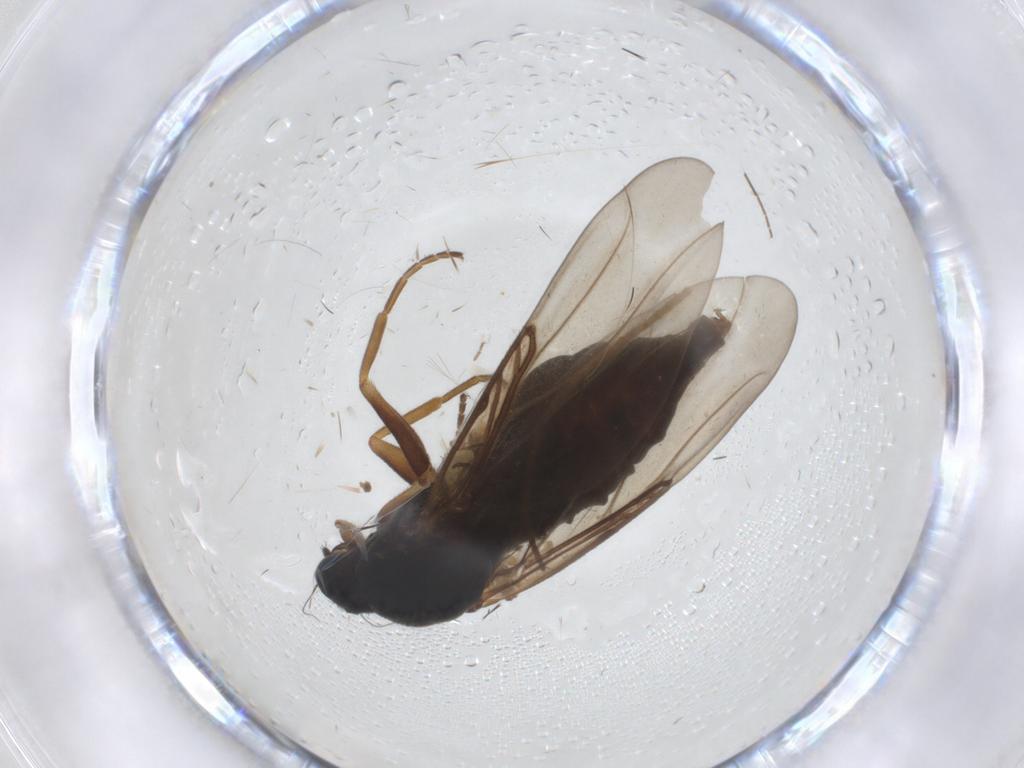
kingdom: Animalia
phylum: Arthropoda
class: Insecta
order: Diptera
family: Phoridae
